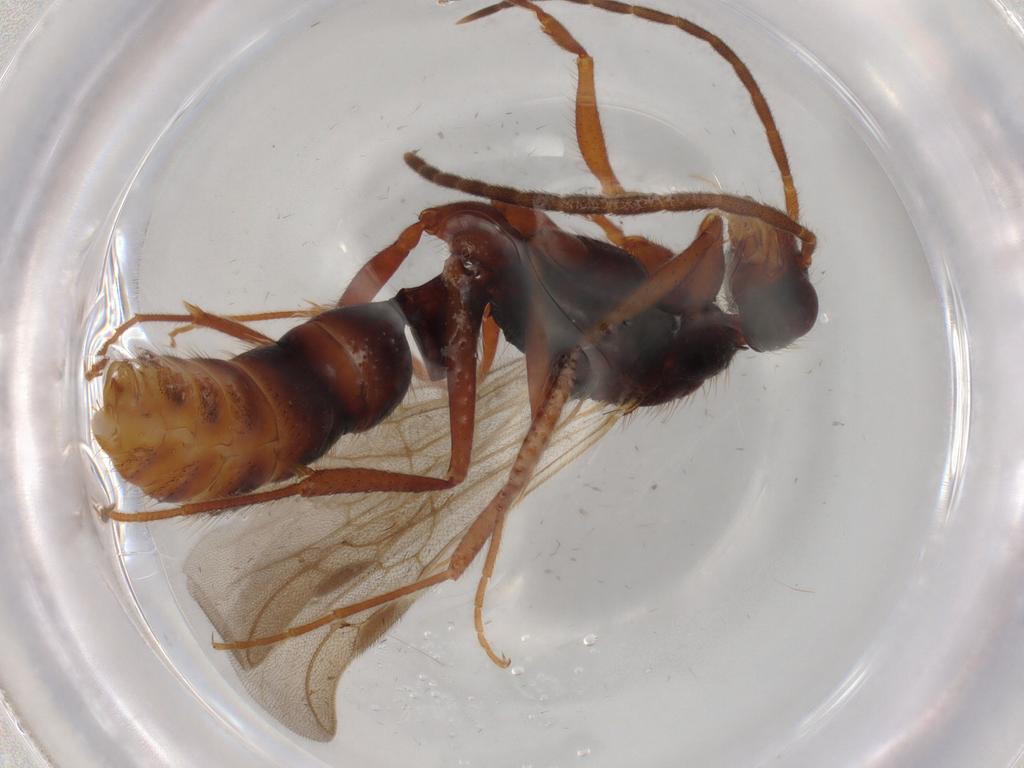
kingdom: Animalia
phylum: Arthropoda
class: Insecta
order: Hymenoptera
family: Formicidae
